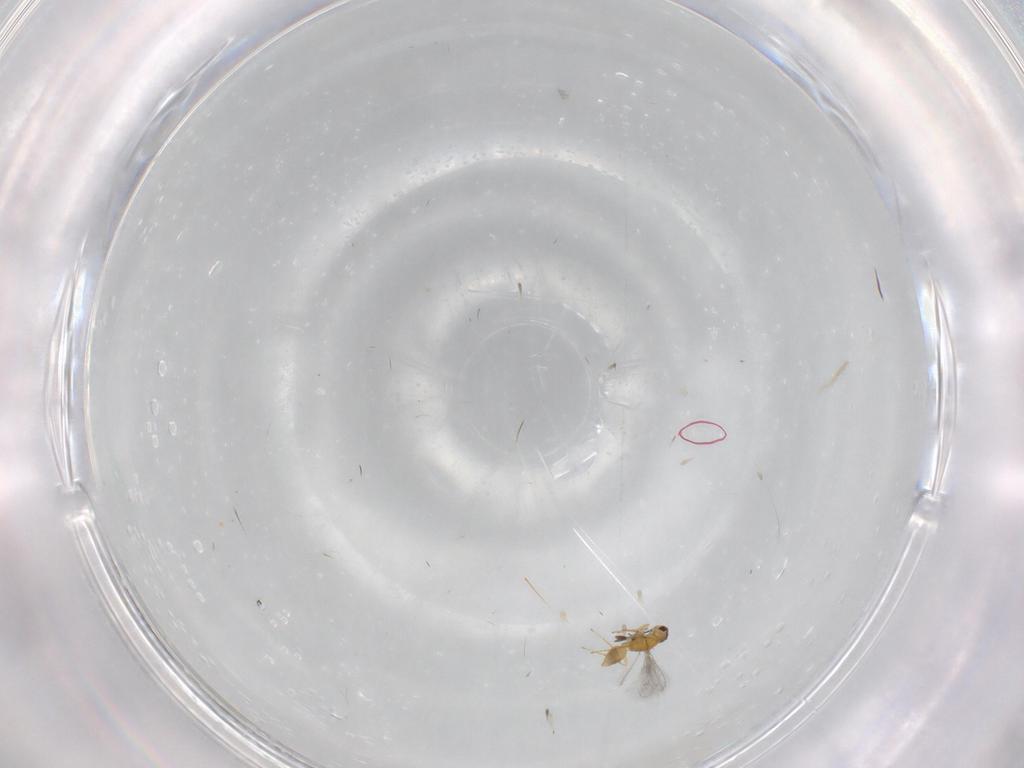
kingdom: Animalia
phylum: Arthropoda
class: Insecta
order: Hymenoptera
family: Mymaridae
